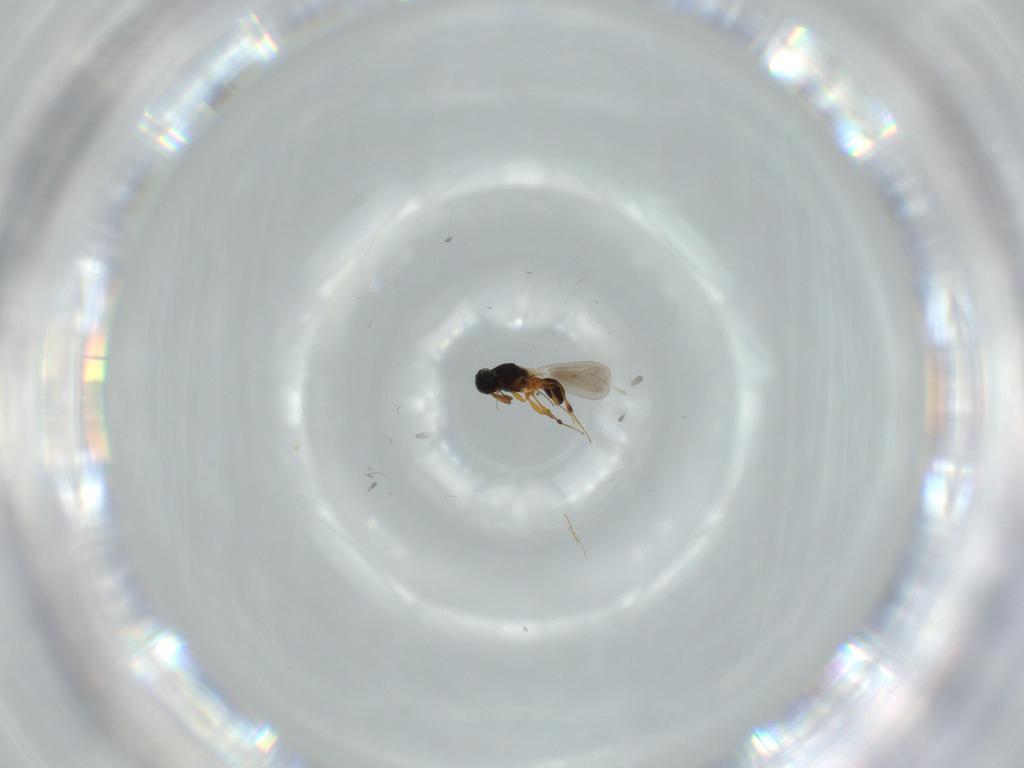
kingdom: Animalia
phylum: Arthropoda
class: Insecta
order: Hymenoptera
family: Platygastridae
